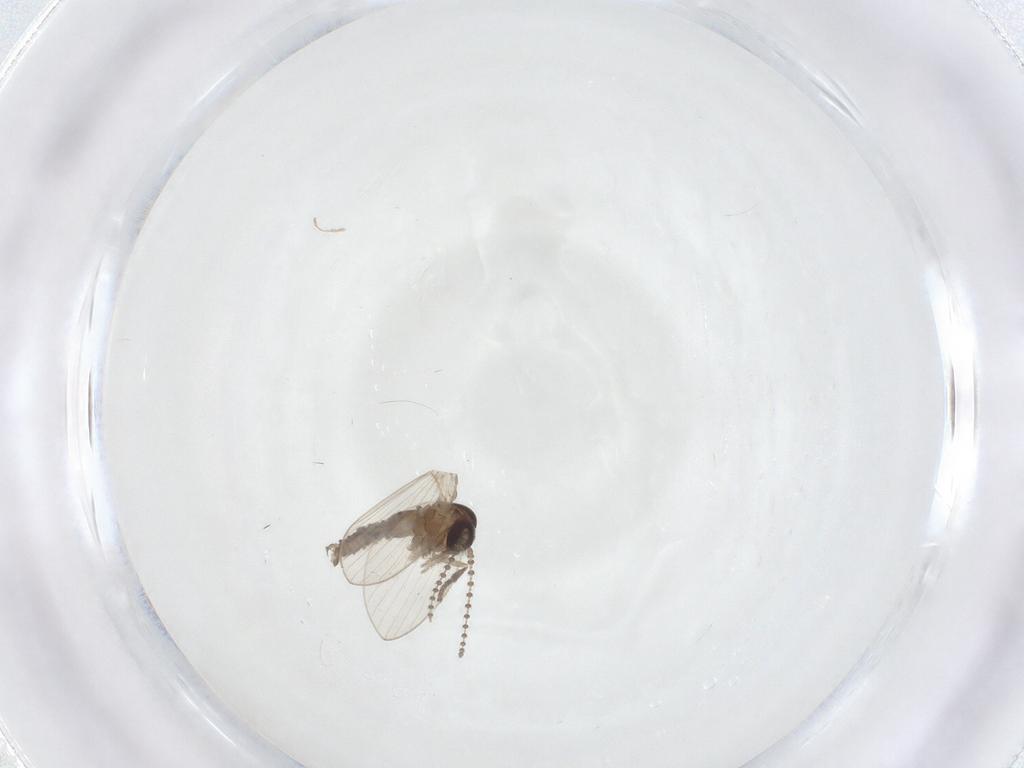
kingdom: Animalia
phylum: Arthropoda
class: Insecta
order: Diptera
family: Psychodidae
